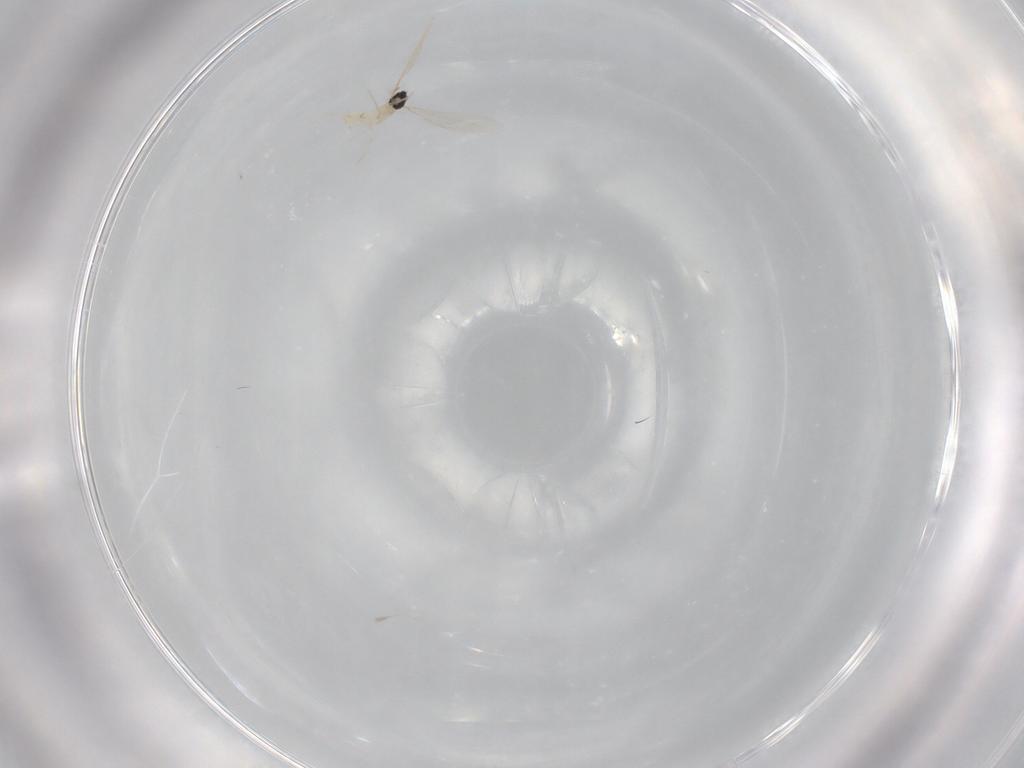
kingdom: Animalia
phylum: Arthropoda
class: Insecta
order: Diptera
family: Cecidomyiidae
